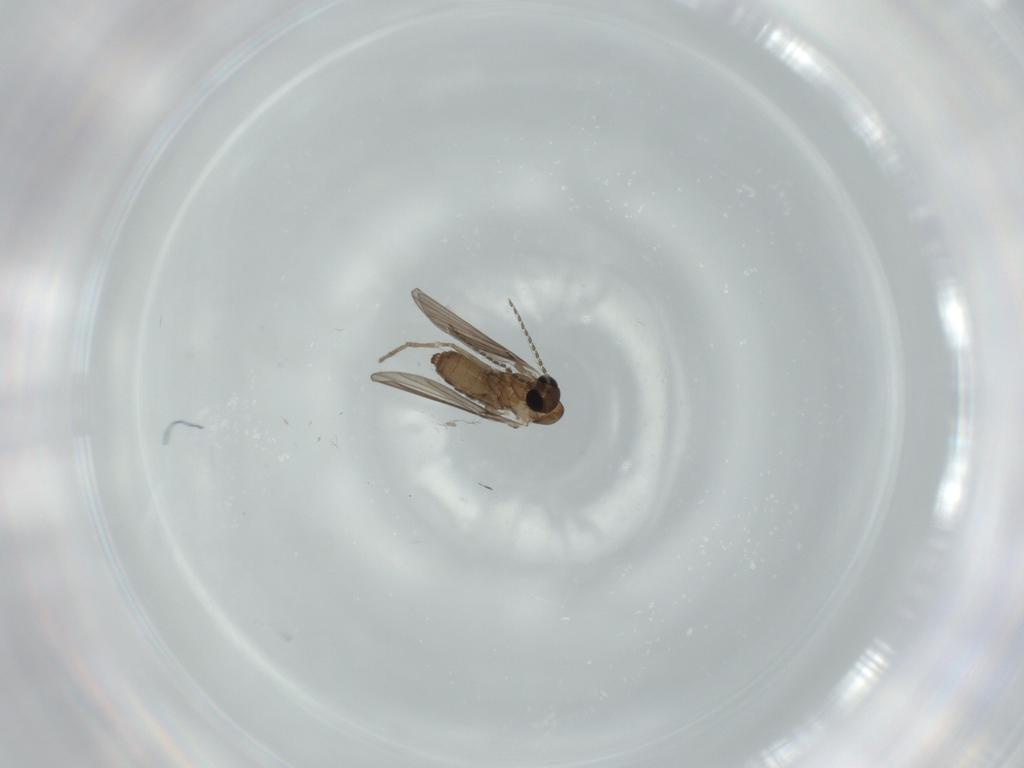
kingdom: Animalia
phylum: Arthropoda
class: Insecta
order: Diptera
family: Psychodidae
